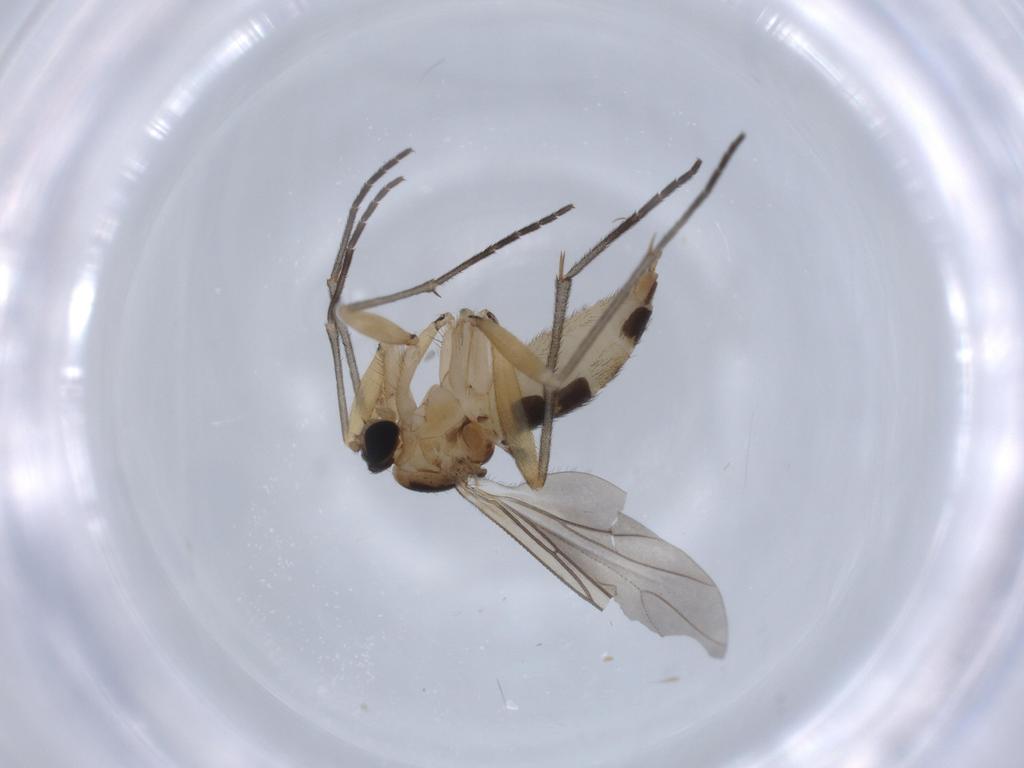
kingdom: Animalia
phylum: Arthropoda
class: Insecta
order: Diptera
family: Sciaridae
